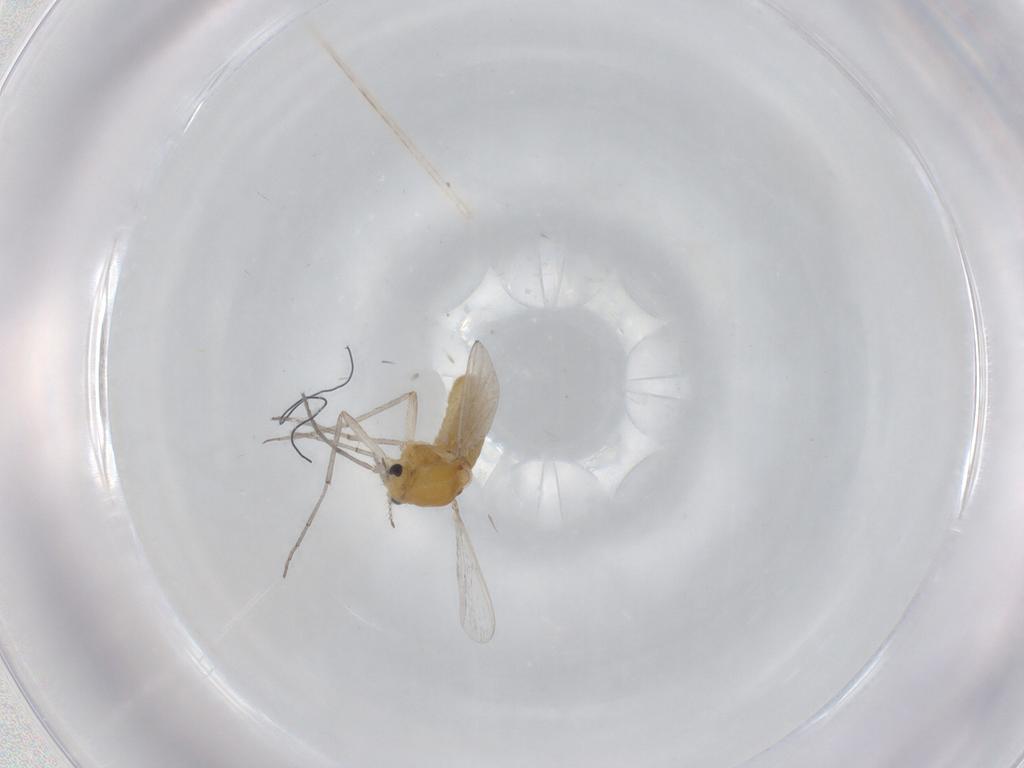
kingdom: Animalia
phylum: Arthropoda
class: Insecta
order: Diptera
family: Chironomidae
